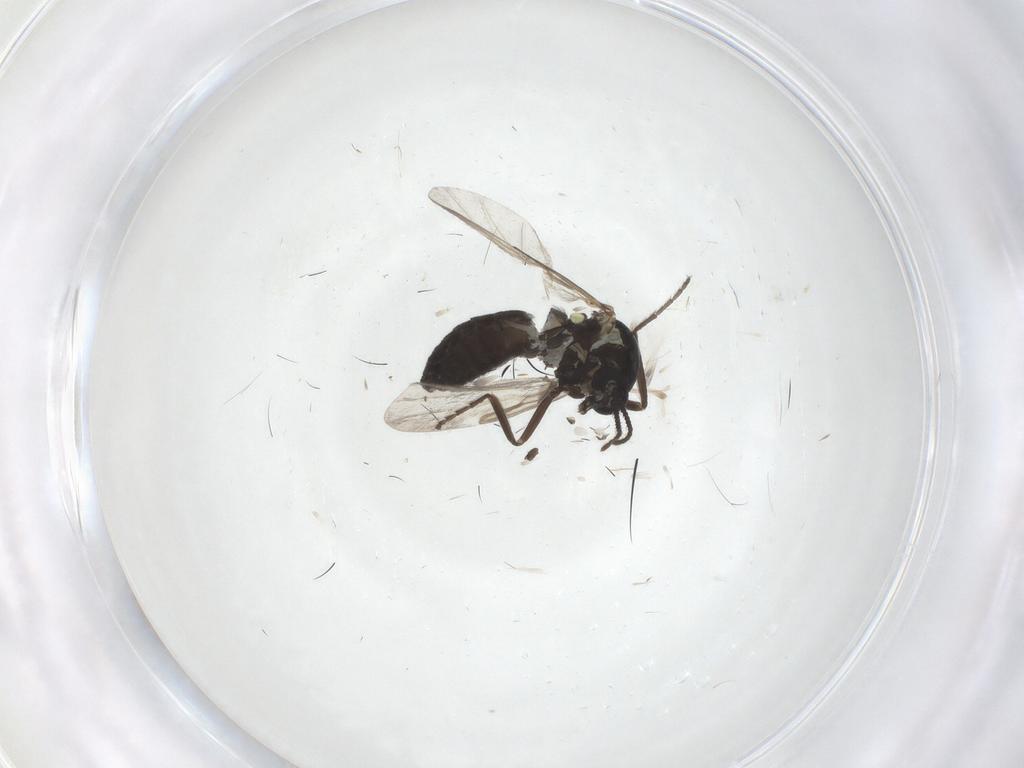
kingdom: Animalia
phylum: Arthropoda
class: Insecta
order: Diptera
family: Ceratopogonidae
